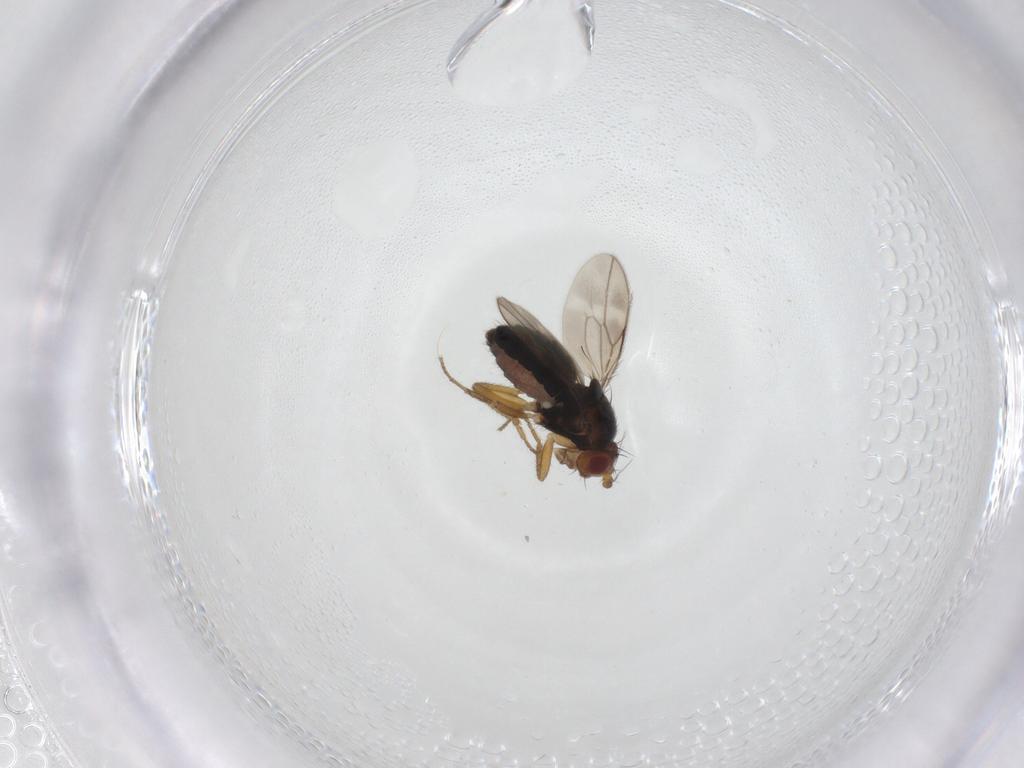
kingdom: Animalia
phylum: Arthropoda
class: Insecta
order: Diptera
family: Sphaeroceridae
